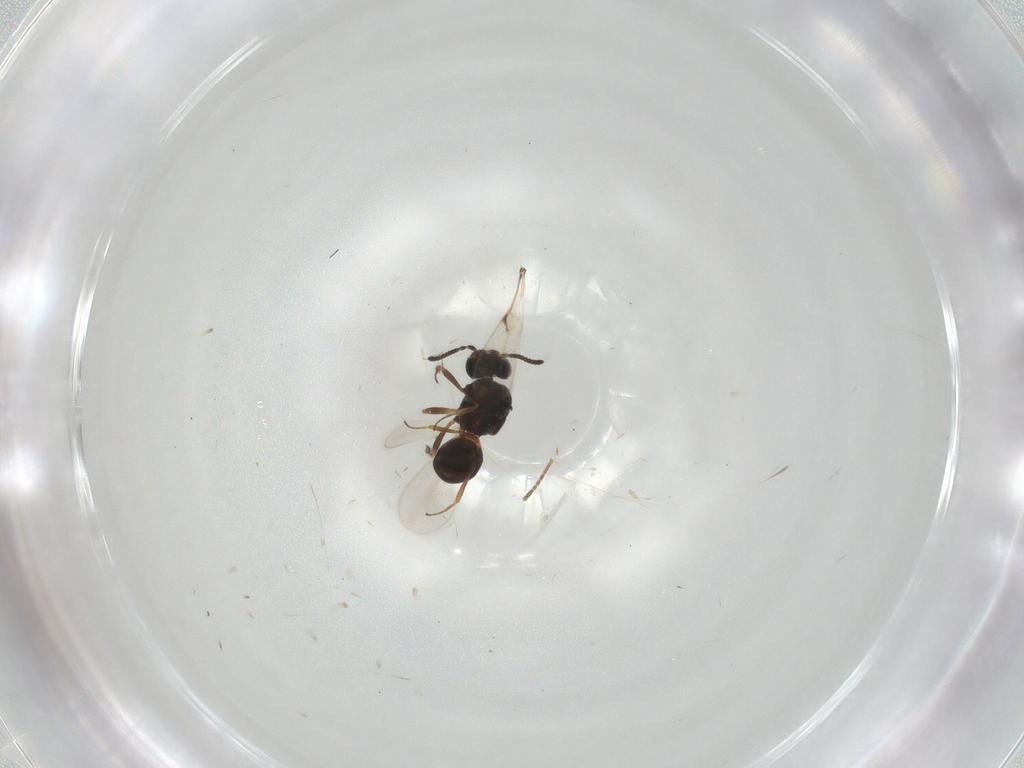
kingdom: Animalia
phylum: Arthropoda
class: Arachnida
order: Araneae
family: Pholcidae
